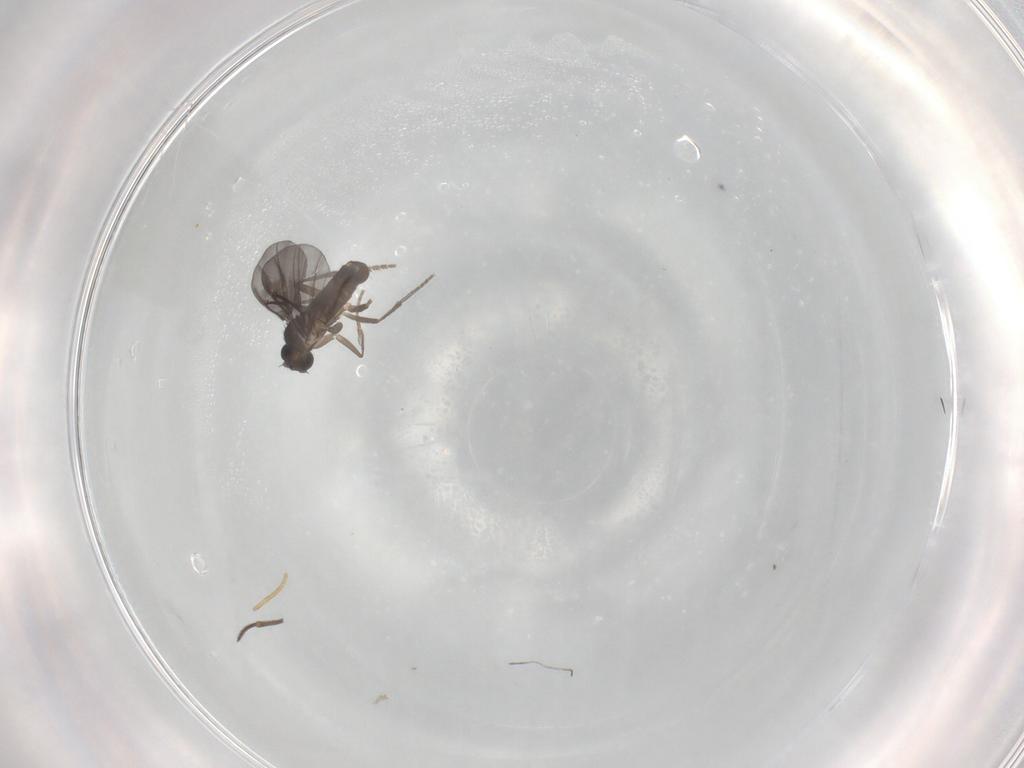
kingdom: Animalia
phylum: Arthropoda
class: Insecta
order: Diptera
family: Phoridae
